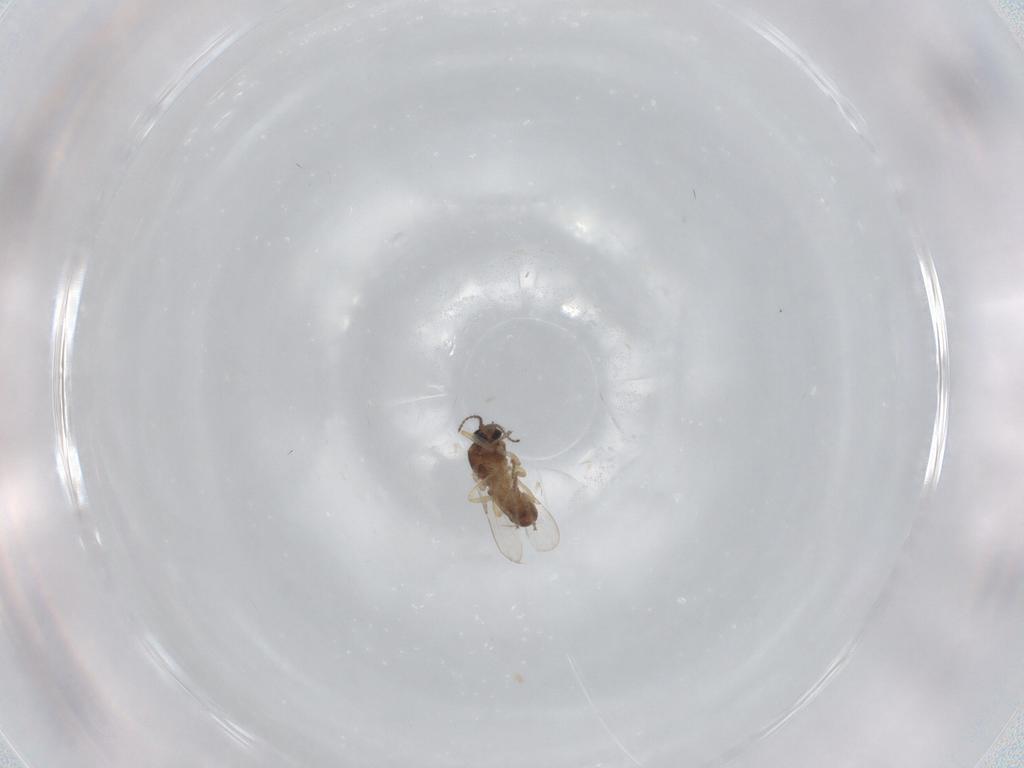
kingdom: Animalia
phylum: Arthropoda
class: Insecta
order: Diptera
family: Ceratopogonidae
